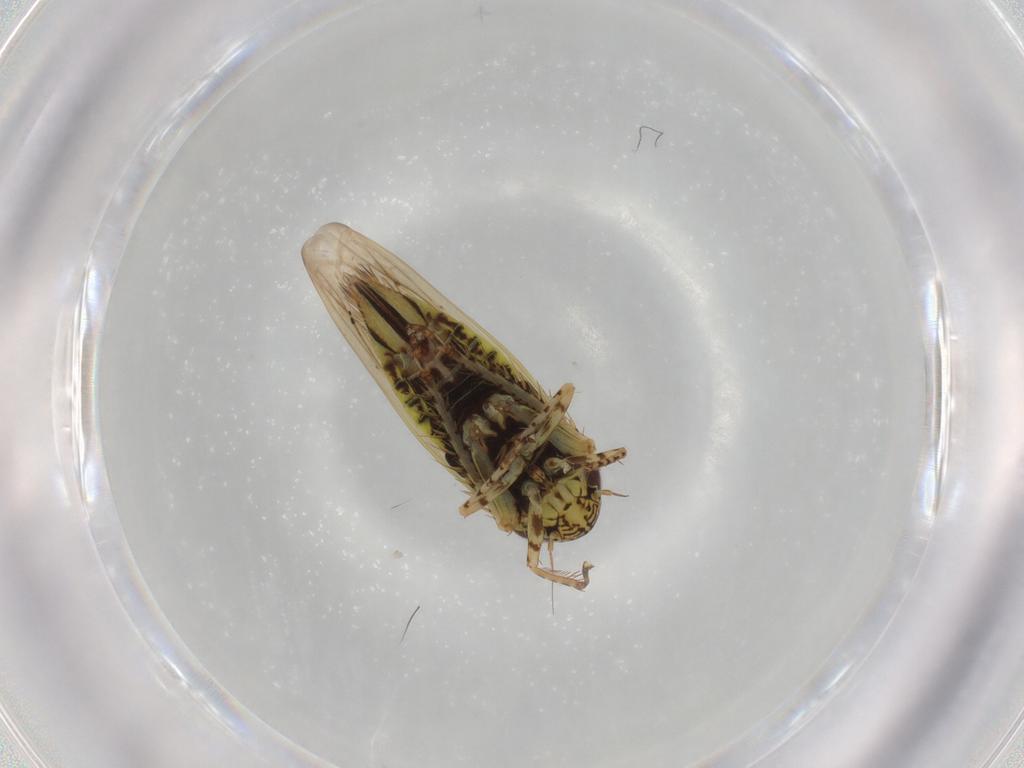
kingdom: Animalia
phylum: Arthropoda
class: Insecta
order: Hemiptera
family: Cicadellidae
